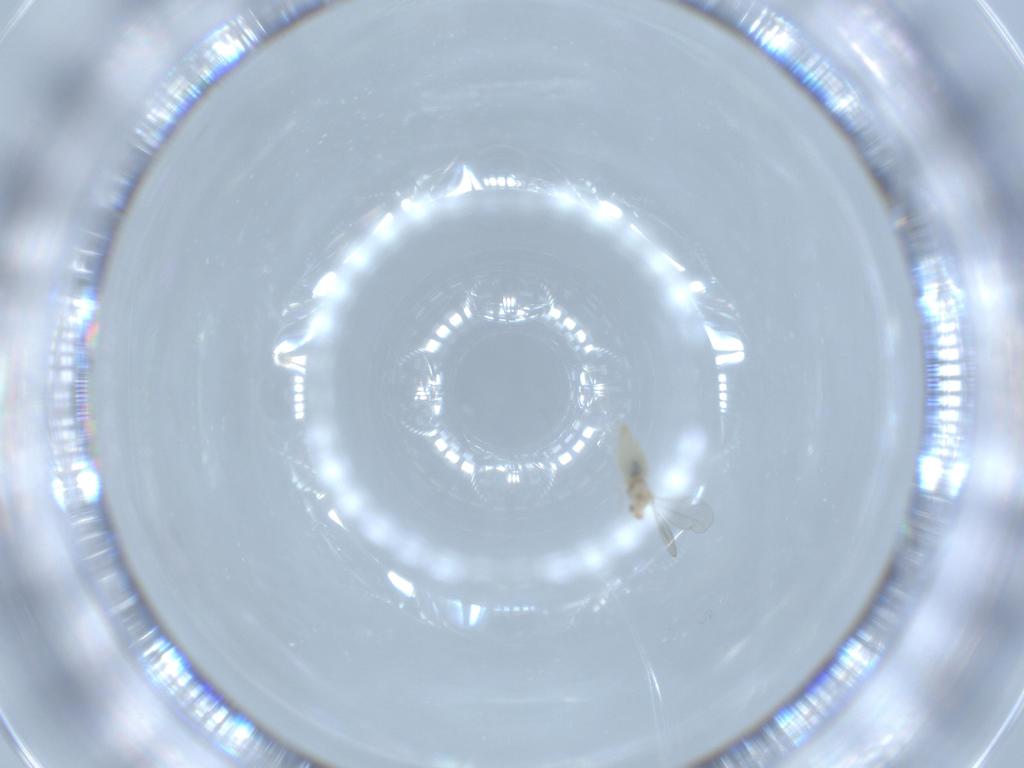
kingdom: Animalia
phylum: Arthropoda
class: Insecta
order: Diptera
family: Cecidomyiidae
